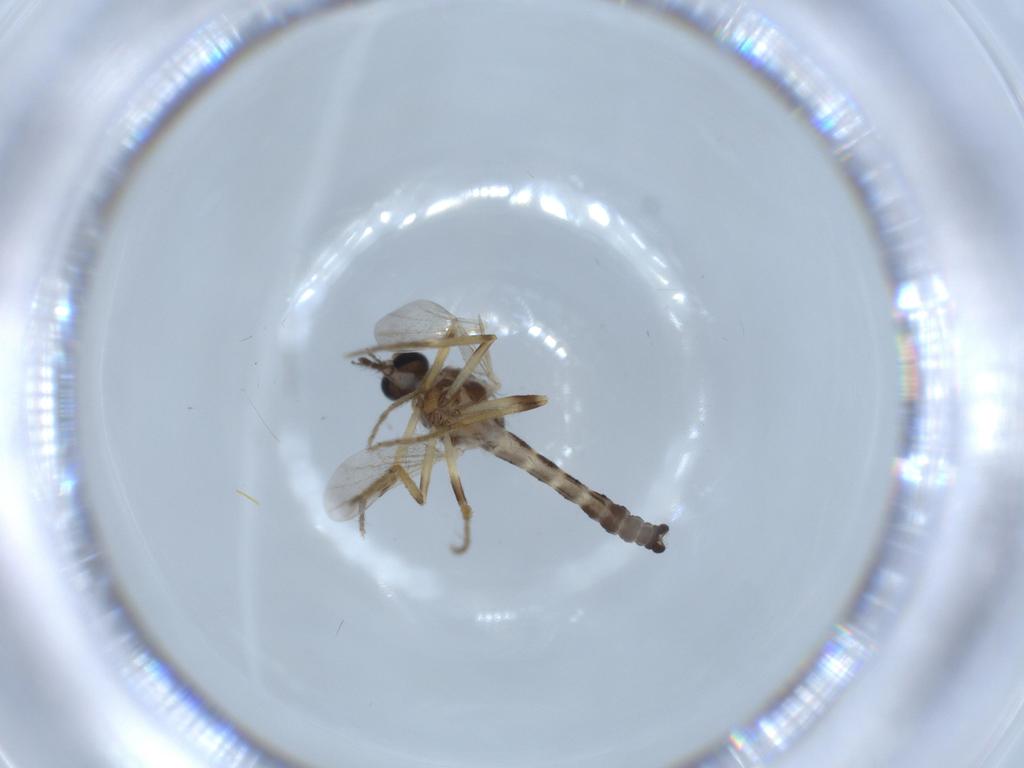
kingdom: Animalia
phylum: Arthropoda
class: Insecta
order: Diptera
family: Ceratopogonidae
